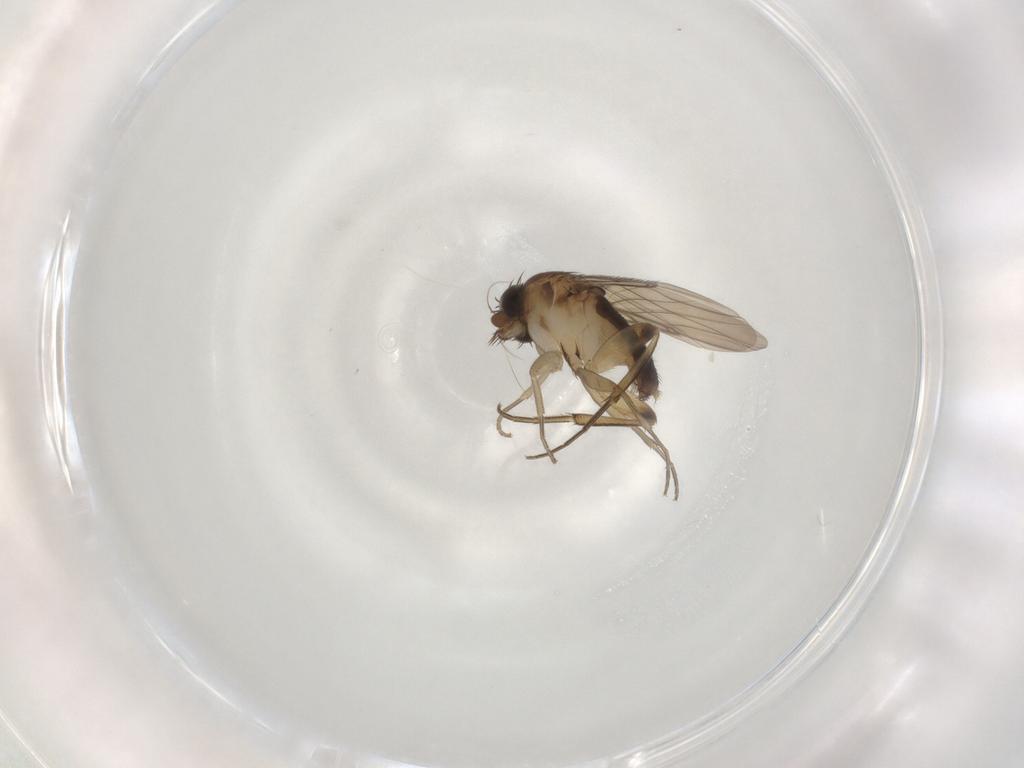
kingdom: Animalia
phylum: Arthropoda
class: Insecta
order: Diptera
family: Phoridae
